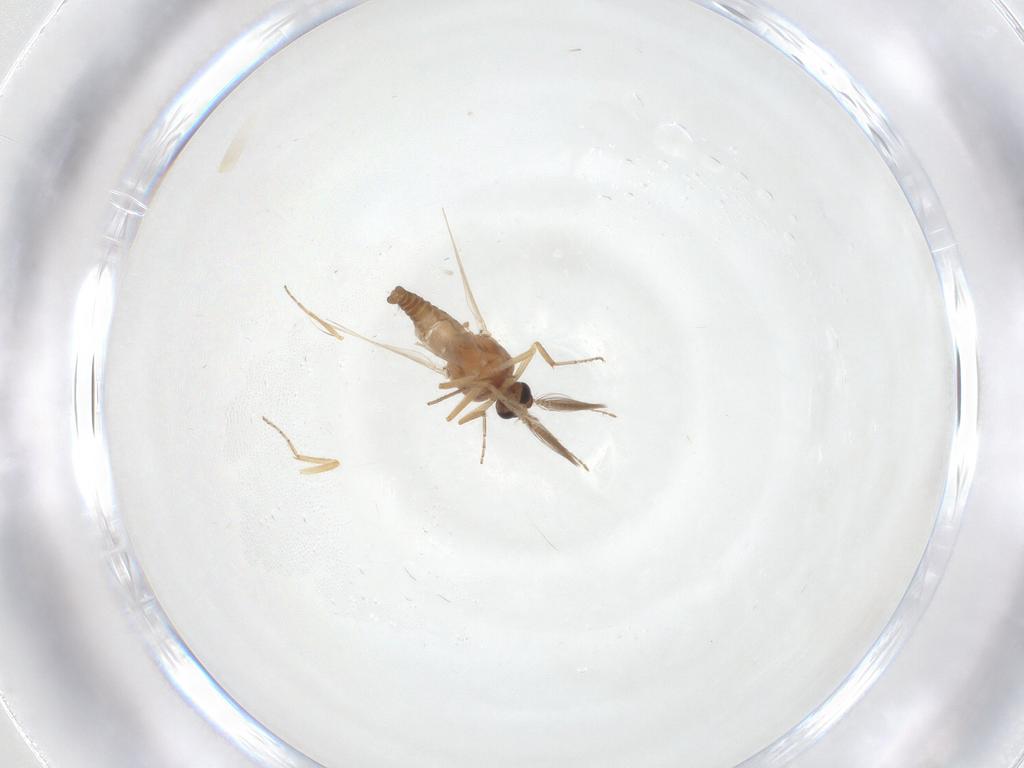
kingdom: Animalia
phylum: Arthropoda
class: Insecta
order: Diptera
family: Ceratopogonidae
